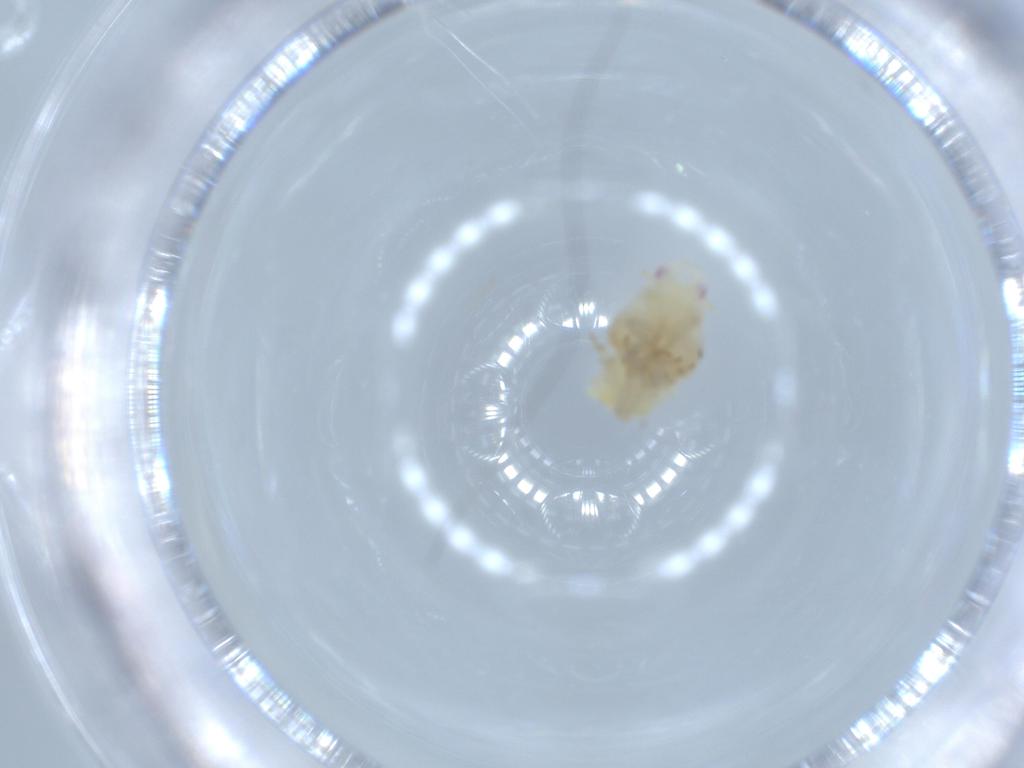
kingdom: Animalia
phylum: Arthropoda
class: Insecta
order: Hemiptera
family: Flatidae
